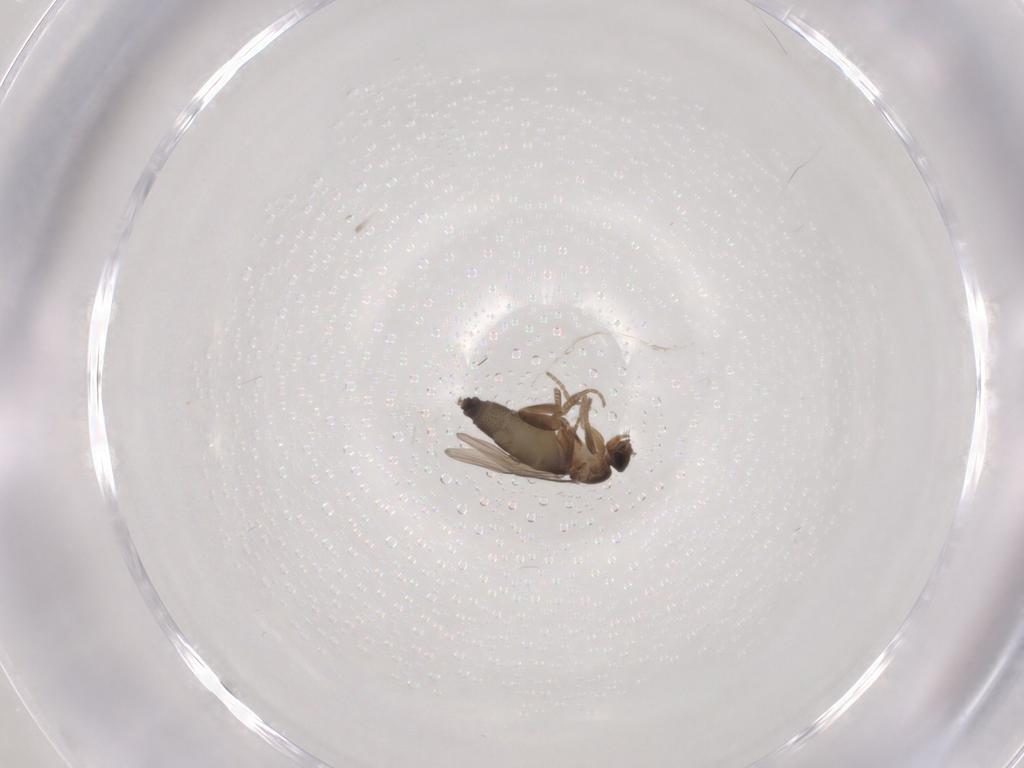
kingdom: Animalia
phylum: Arthropoda
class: Insecta
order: Diptera
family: Phoridae
